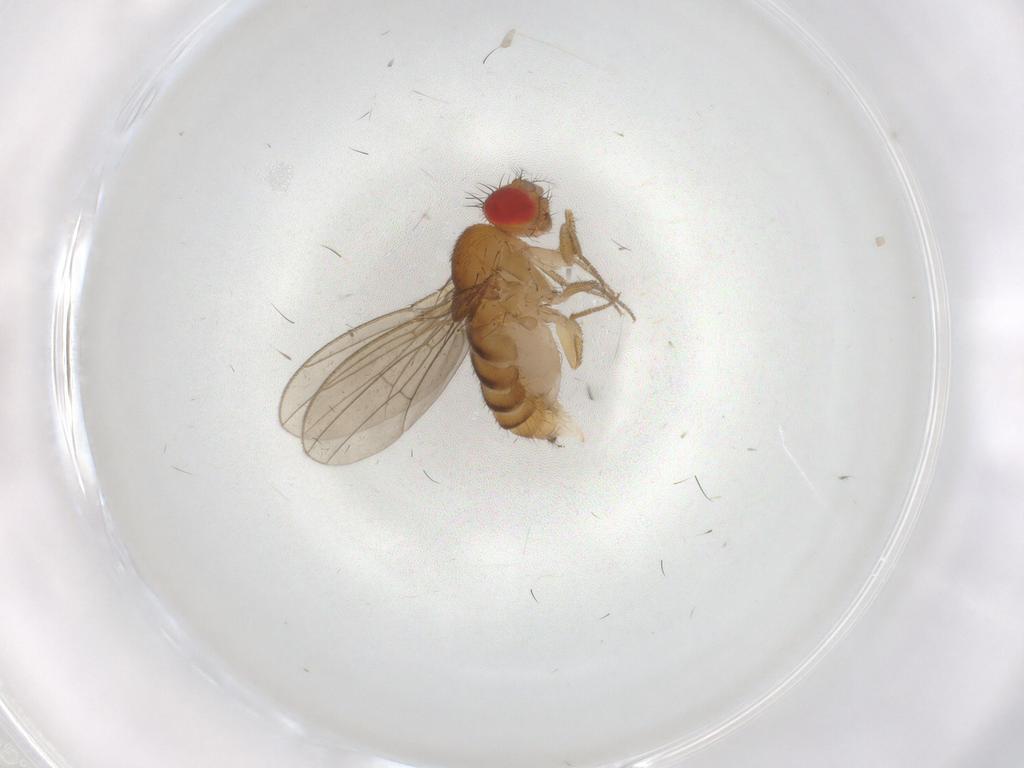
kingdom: Animalia
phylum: Arthropoda
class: Insecta
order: Diptera
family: Drosophilidae
